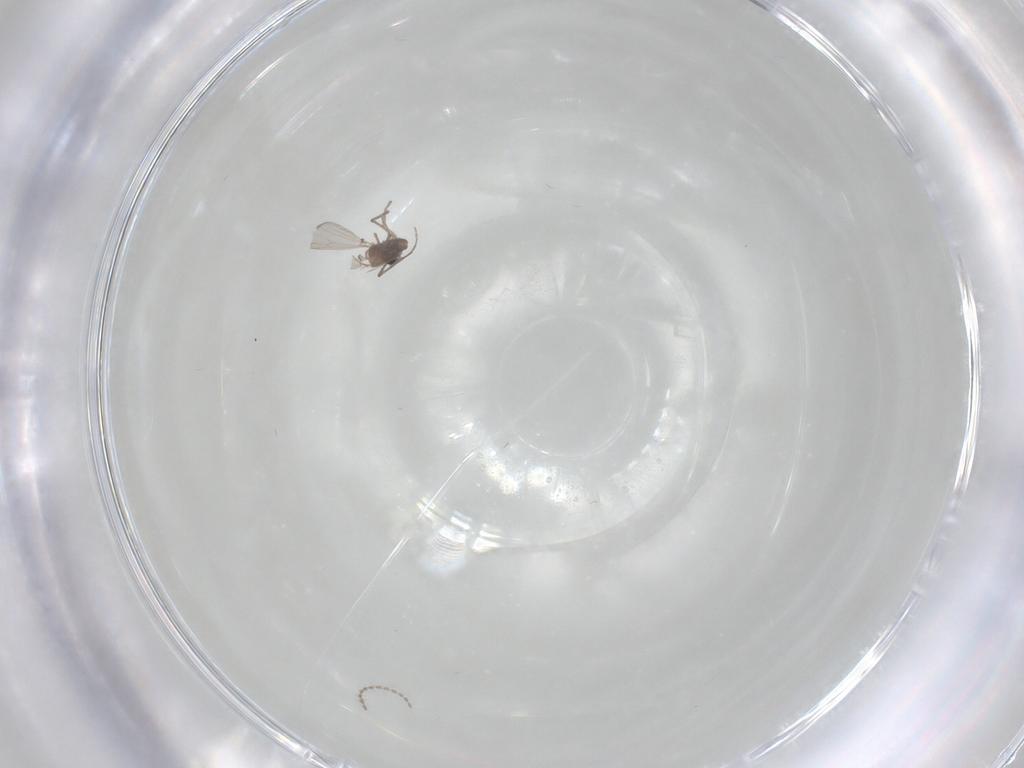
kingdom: Animalia
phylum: Arthropoda
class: Insecta
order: Diptera
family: Chironomidae
